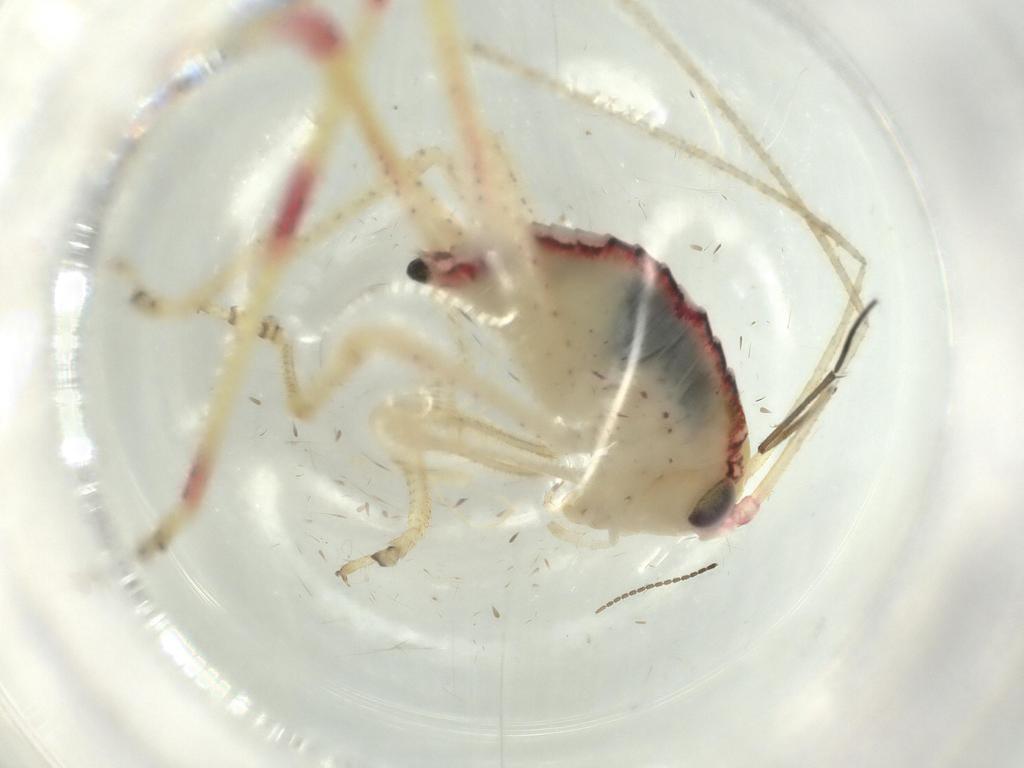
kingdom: Animalia
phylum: Arthropoda
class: Insecta
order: Orthoptera
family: Tettigoniidae
